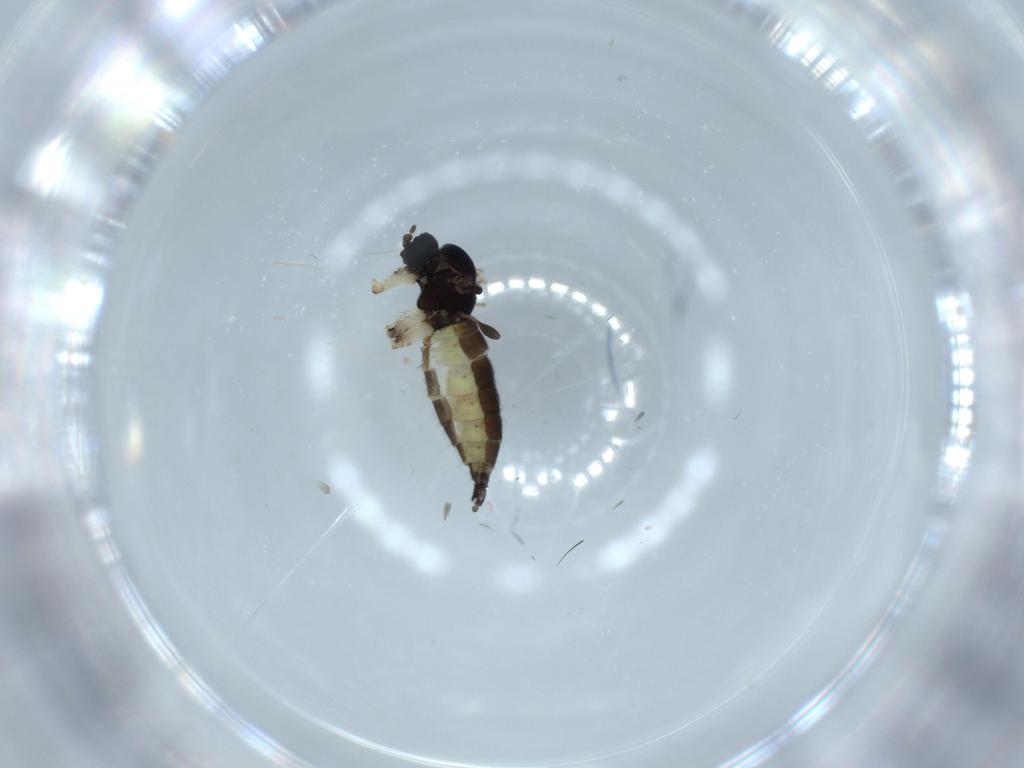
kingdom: Animalia
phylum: Arthropoda
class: Insecta
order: Diptera
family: Sciaridae
